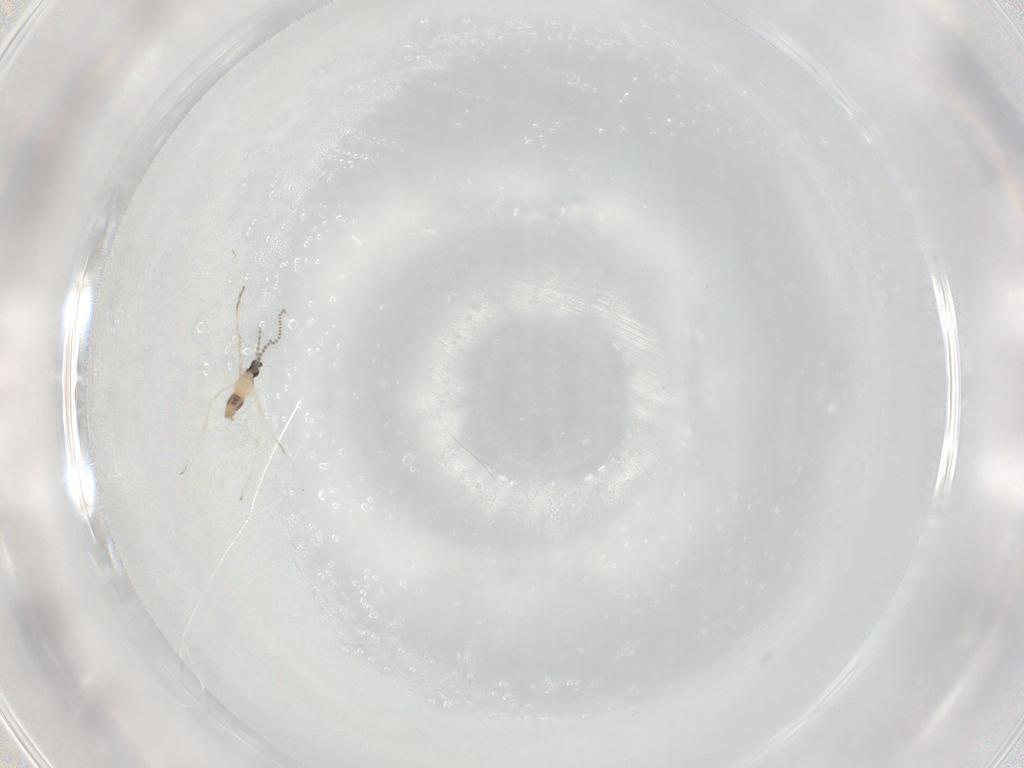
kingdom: Animalia
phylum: Arthropoda
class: Insecta
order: Diptera
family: Cecidomyiidae
